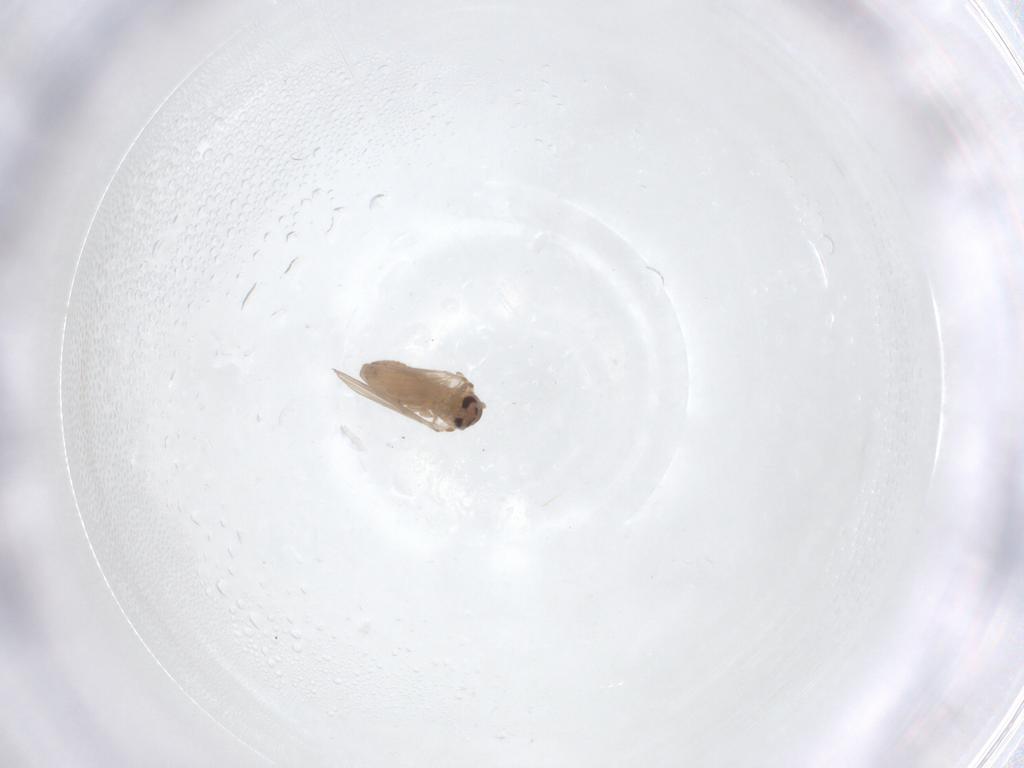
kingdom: Animalia
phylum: Arthropoda
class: Insecta
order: Diptera
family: Psychodidae
